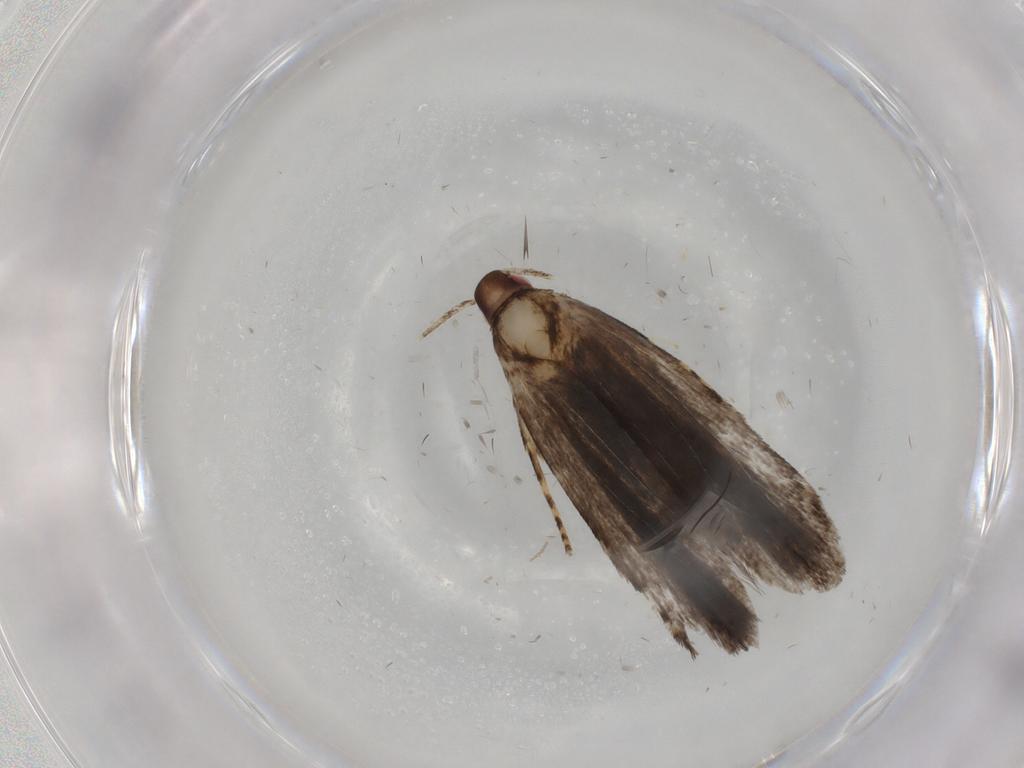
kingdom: Animalia
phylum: Arthropoda
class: Insecta
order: Lepidoptera
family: Gelechiidae
